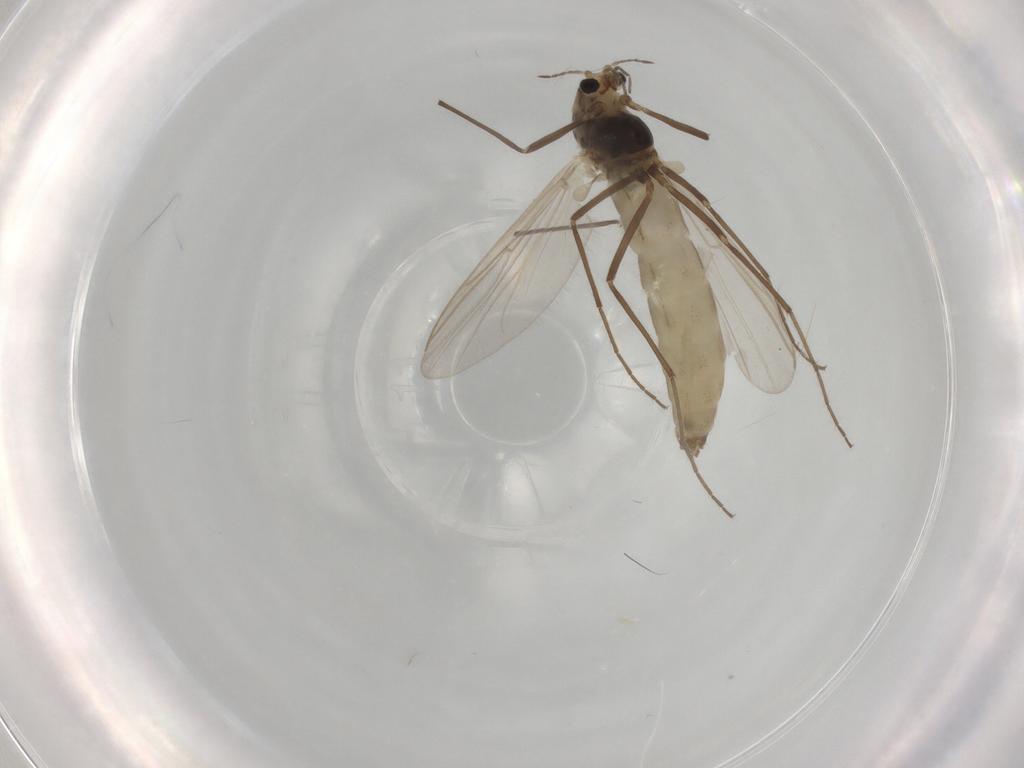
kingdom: Animalia
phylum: Arthropoda
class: Insecta
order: Diptera
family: Chironomidae
